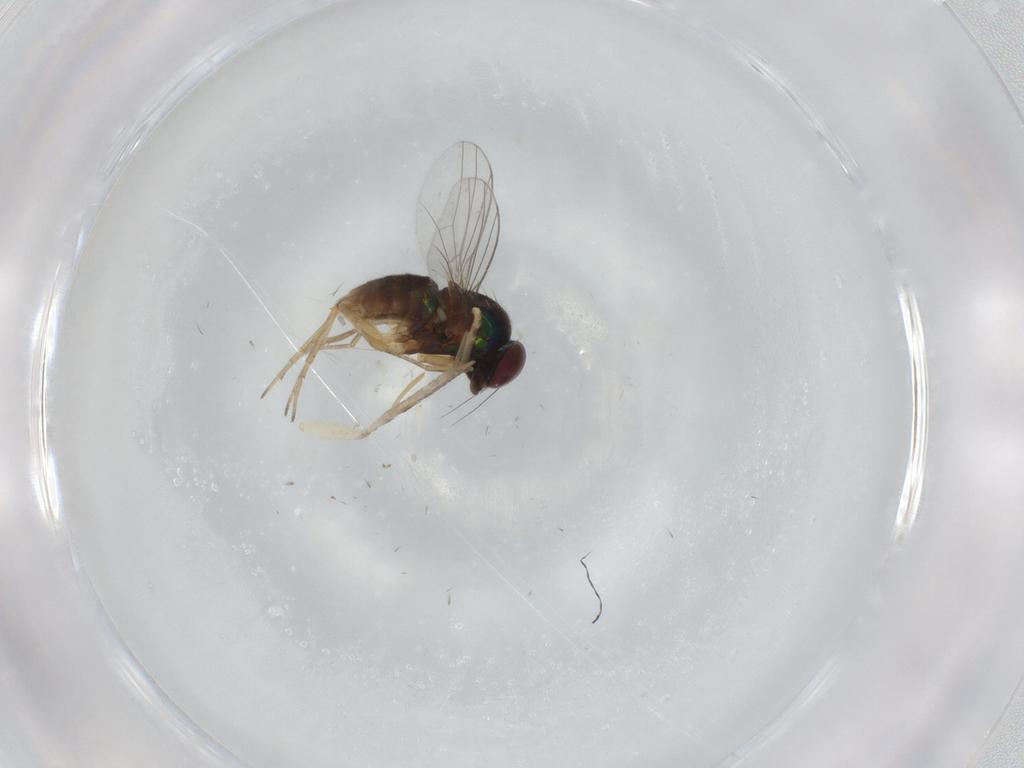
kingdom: Animalia
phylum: Arthropoda
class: Insecta
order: Diptera
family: Dolichopodidae
